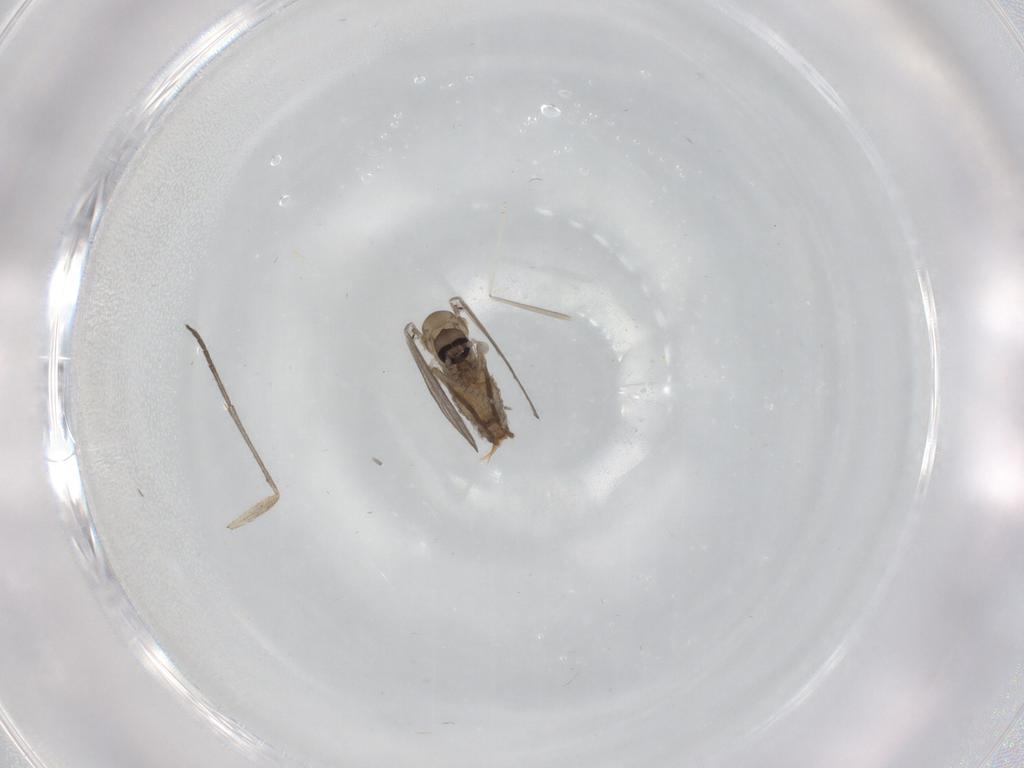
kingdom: Animalia
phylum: Arthropoda
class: Insecta
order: Diptera
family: Sciaridae
